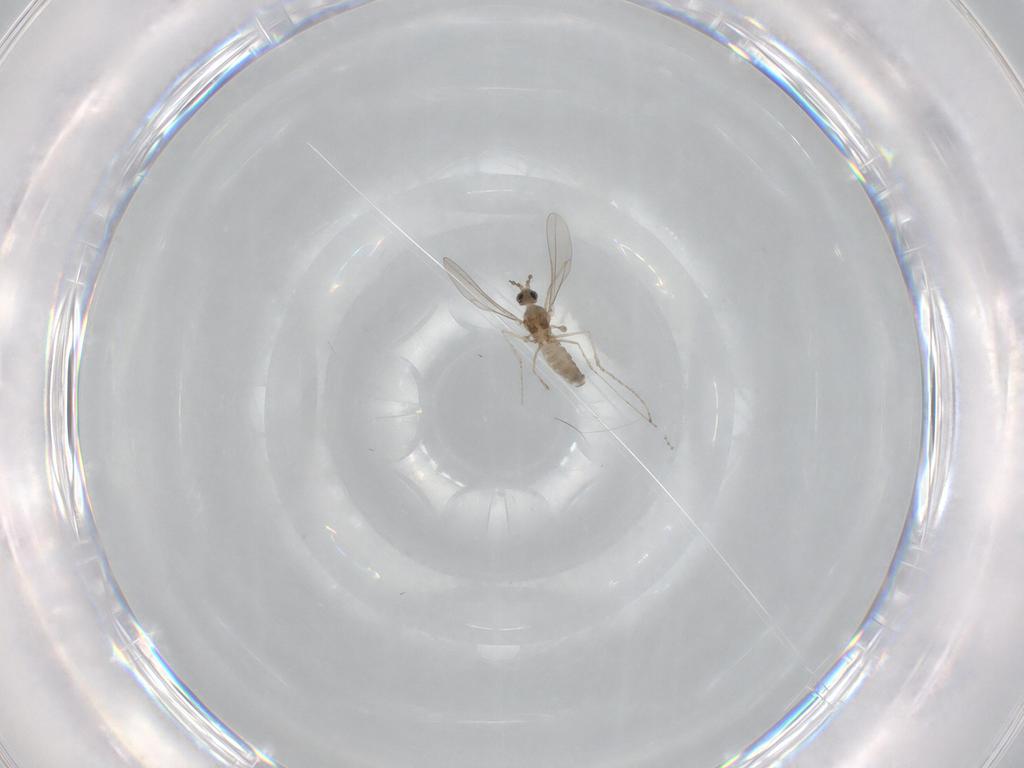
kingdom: Animalia
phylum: Arthropoda
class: Insecta
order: Diptera
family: Cecidomyiidae
